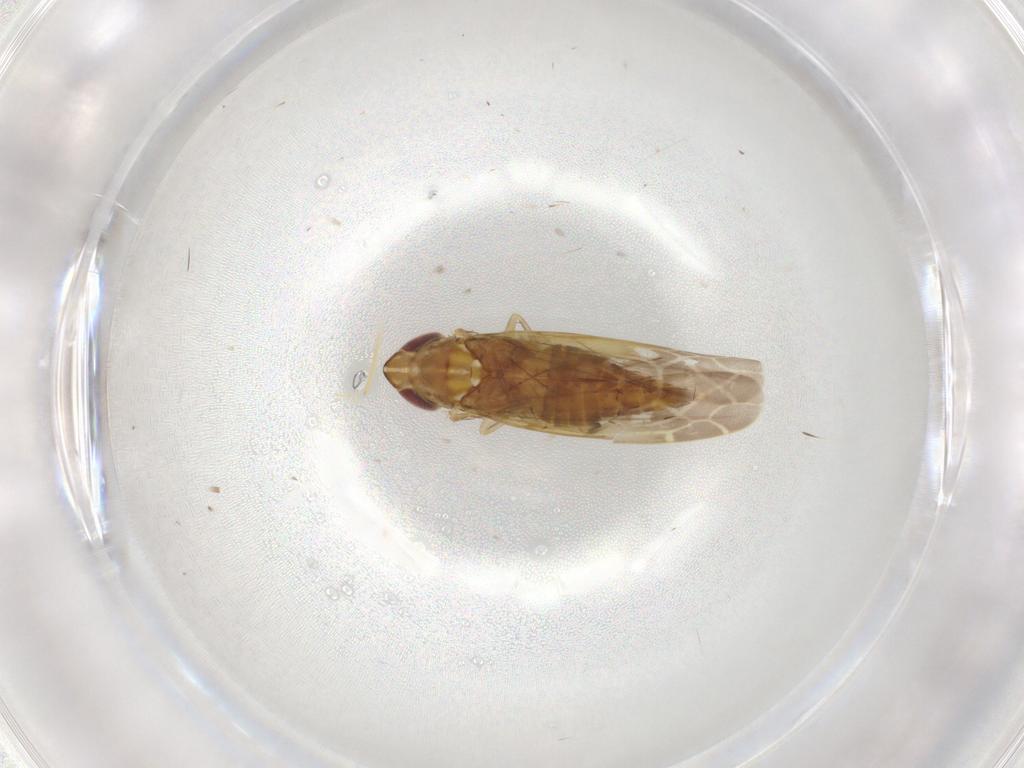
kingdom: Animalia
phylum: Arthropoda
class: Insecta
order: Hemiptera
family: Cicadellidae
